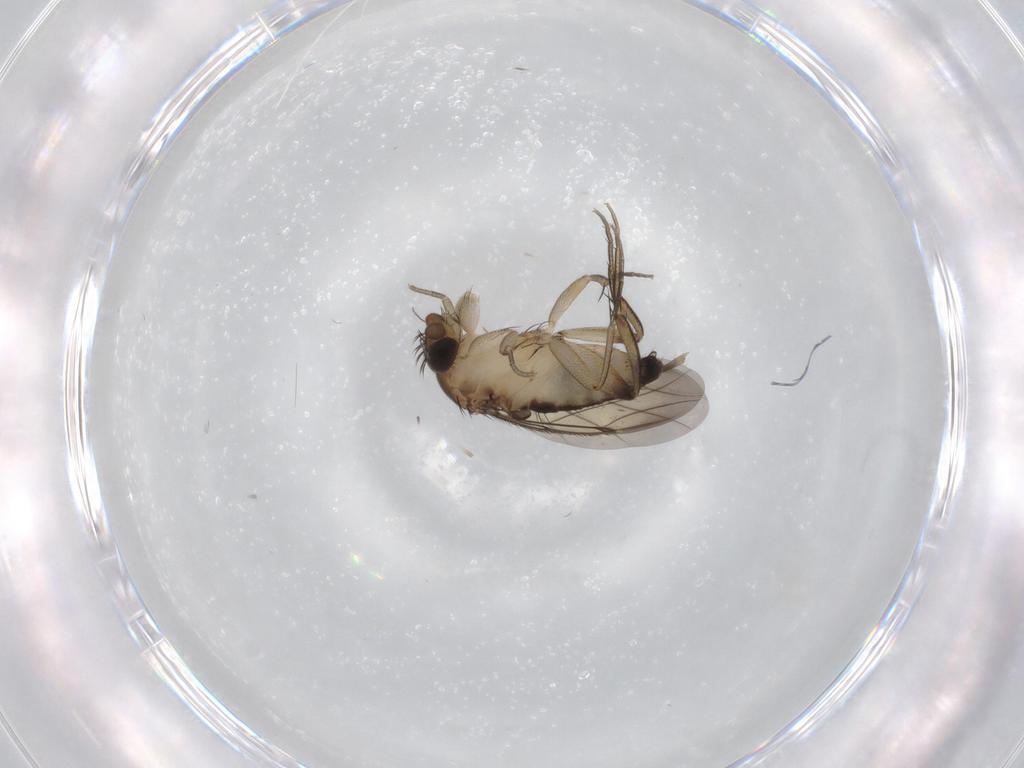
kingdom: Animalia
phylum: Arthropoda
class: Insecta
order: Diptera
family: Phoridae
